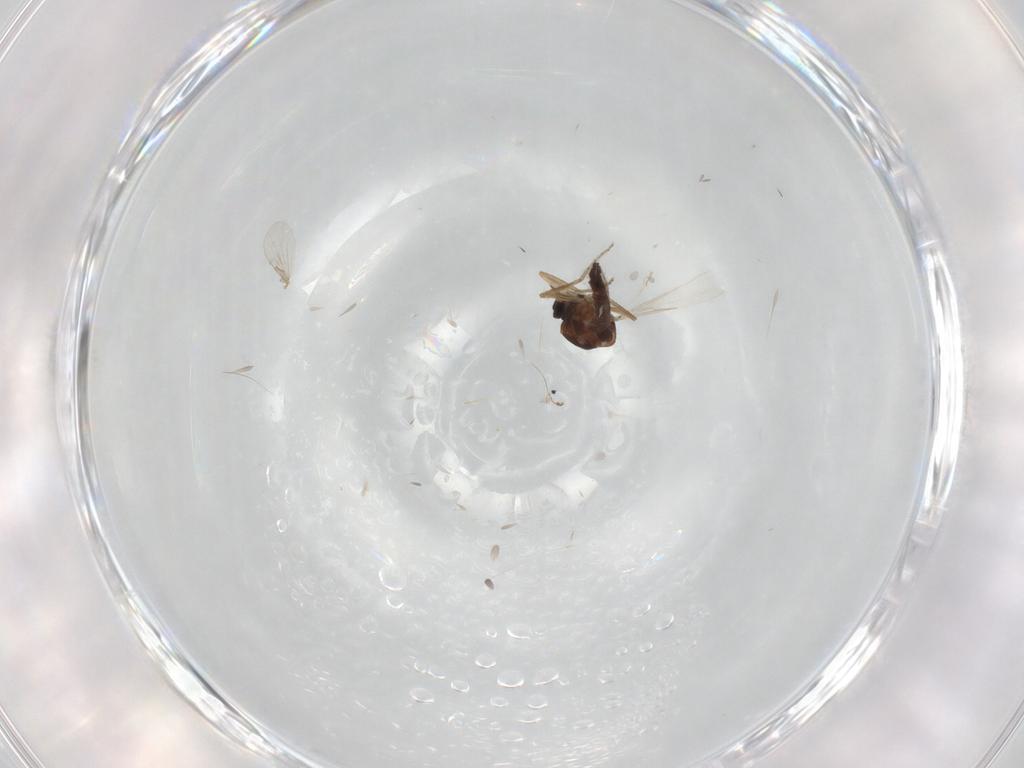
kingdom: Animalia
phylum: Arthropoda
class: Insecta
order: Diptera
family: Ceratopogonidae
